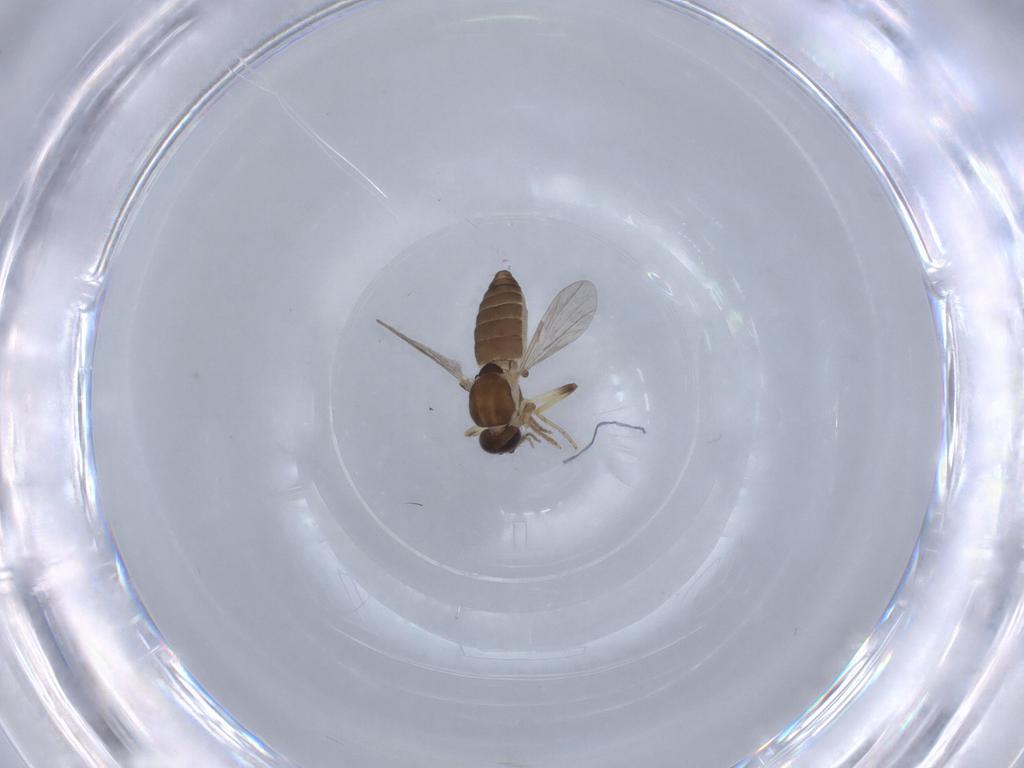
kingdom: Animalia
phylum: Arthropoda
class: Insecta
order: Diptera
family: Ceratopogonidae
